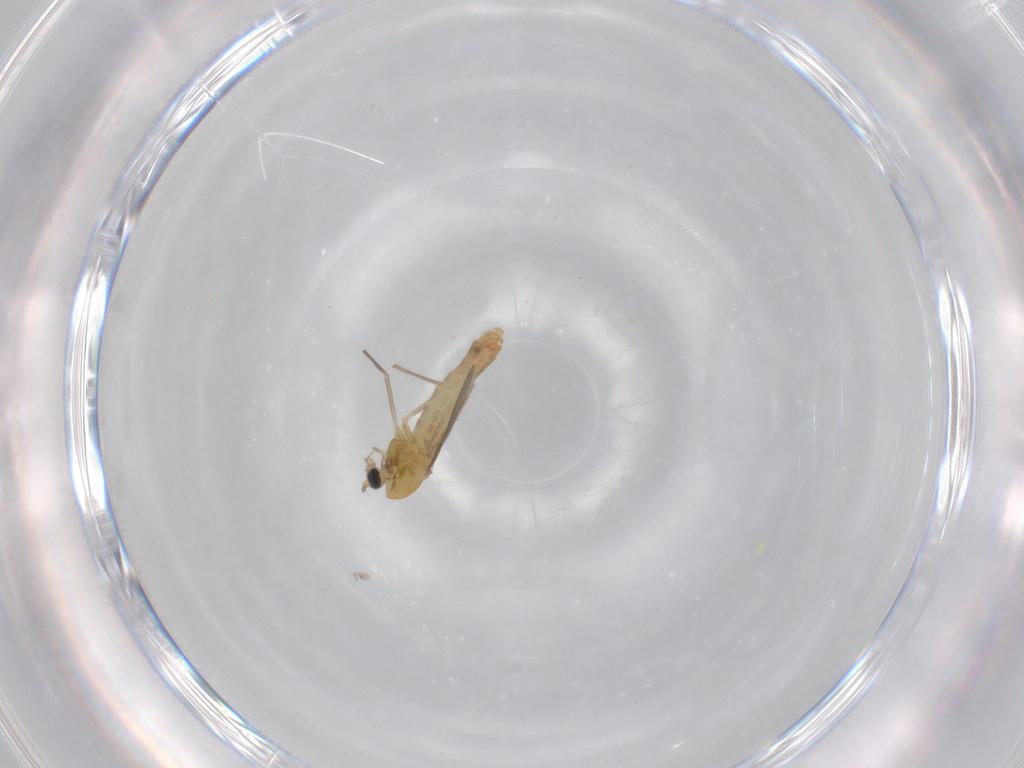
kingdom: Animalia
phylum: Arthropoda
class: Insecta
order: Diptera
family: Chironomidae
